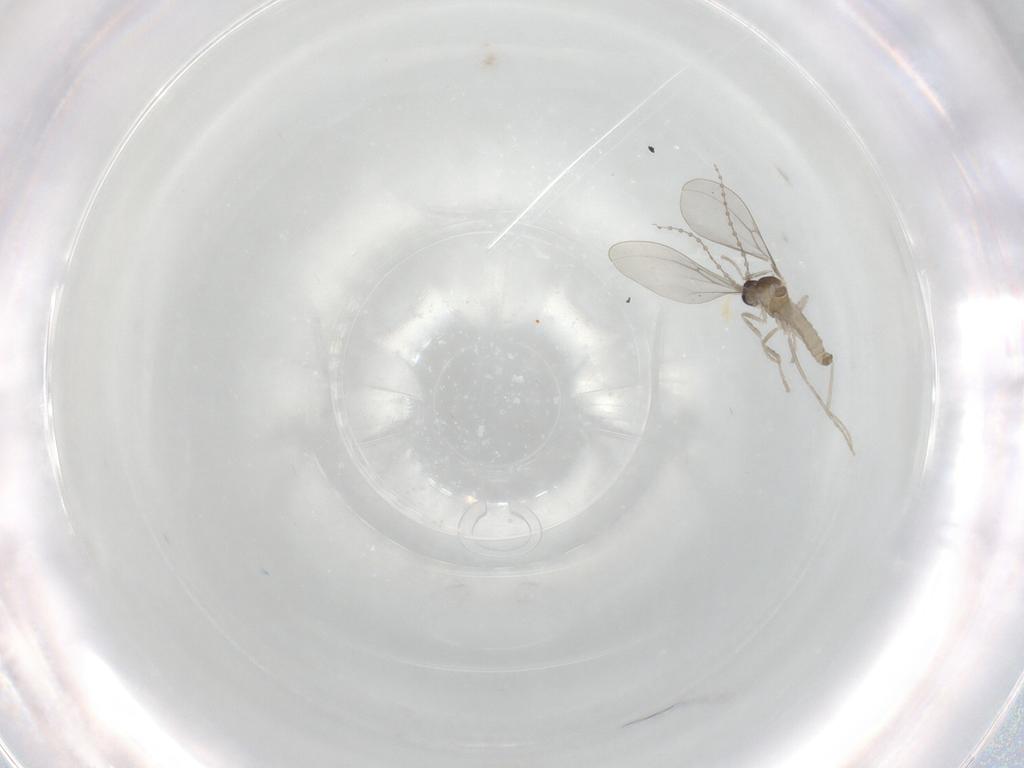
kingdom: Animalia
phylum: Arthropoda
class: Insecta
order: Diptera
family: Cecidomyiidae
